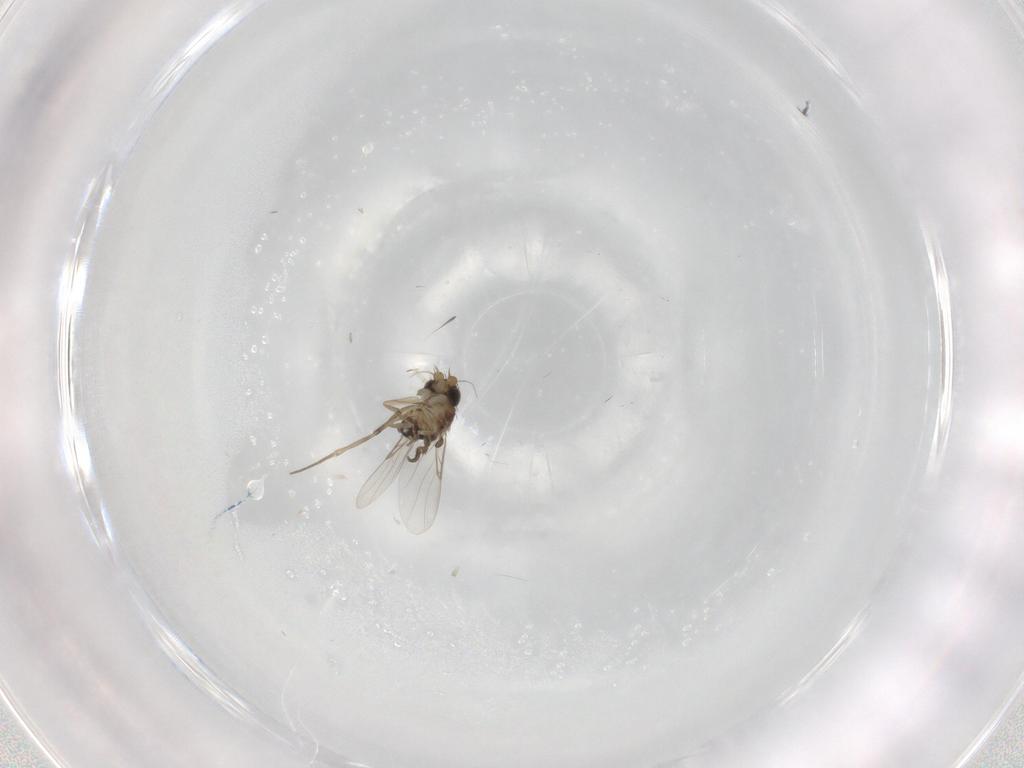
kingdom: Animalia
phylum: Arthropoda
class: Insecta
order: Diptera
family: Phoridae
